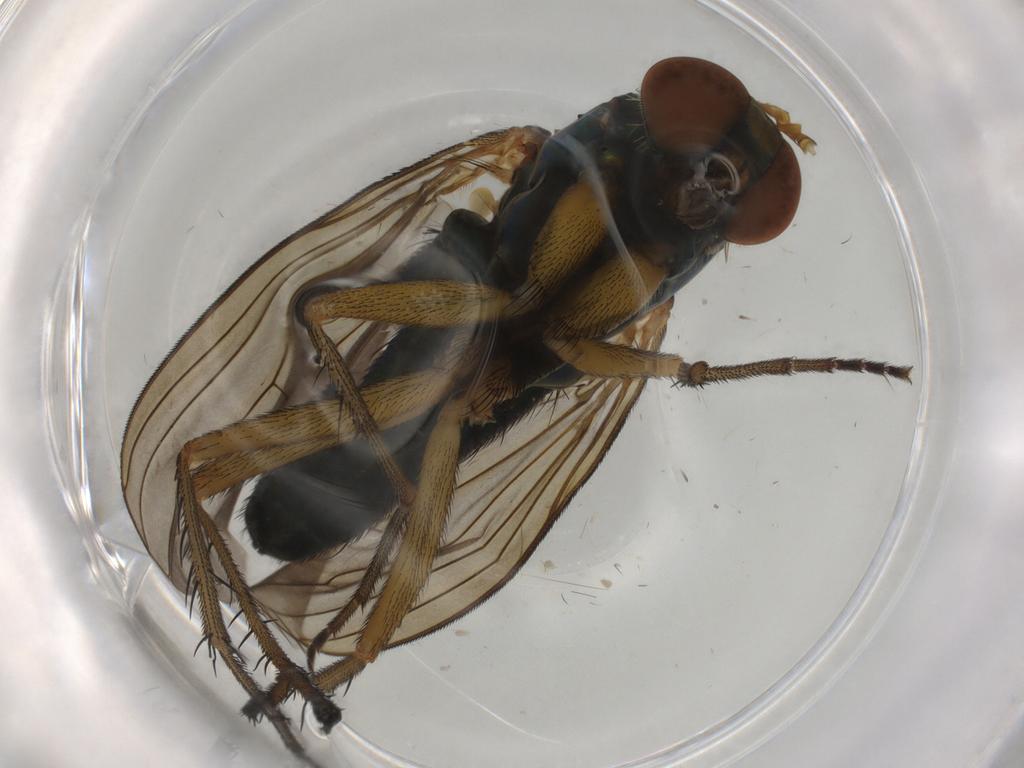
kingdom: Animalia
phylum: Arthropoda
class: Insecta
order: Diptera
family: Dolichopodidae
